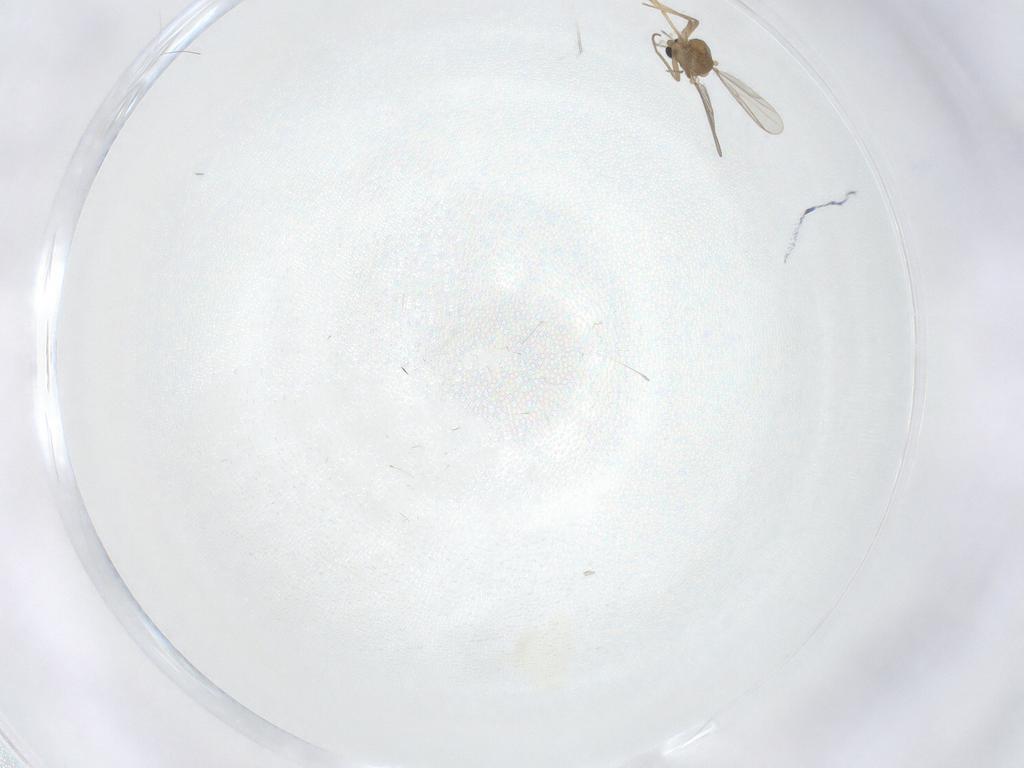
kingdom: Animalia
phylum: Arthropoda
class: Insecta
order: Diptera
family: Chironomidae
